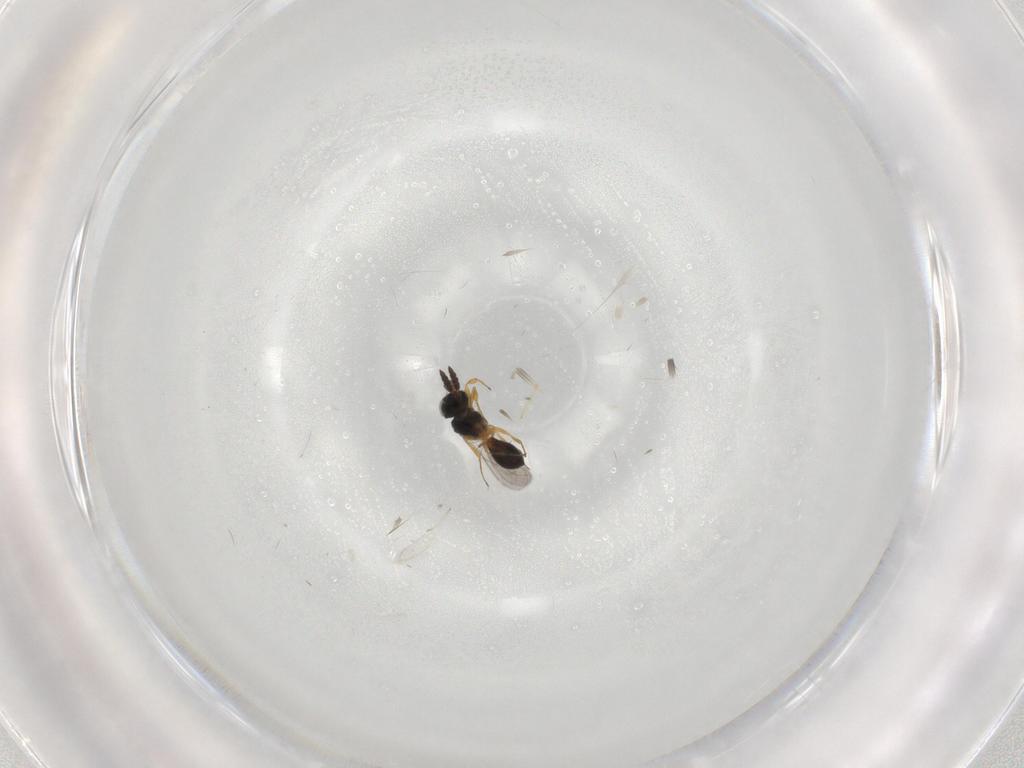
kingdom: Animalia
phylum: Arthropoda
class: Insecta
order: Hymenoptera
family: Scelionidae
